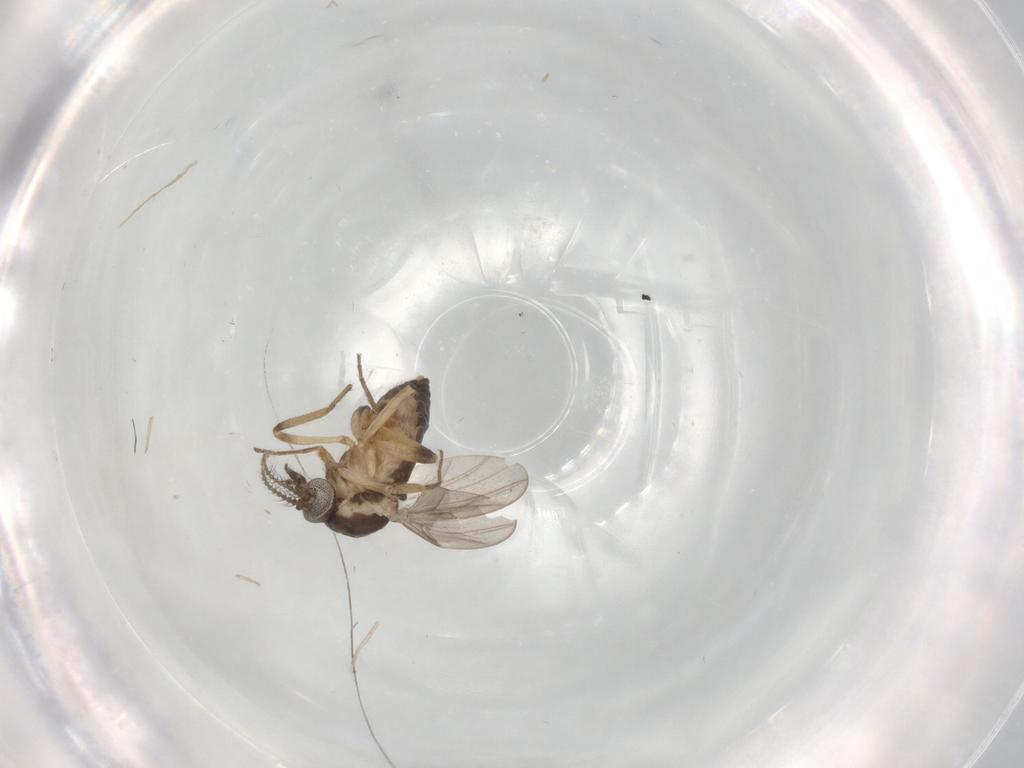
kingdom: Animalia
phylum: Arthropoda
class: Insecta
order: Diptera
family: Ceratopogonidae
